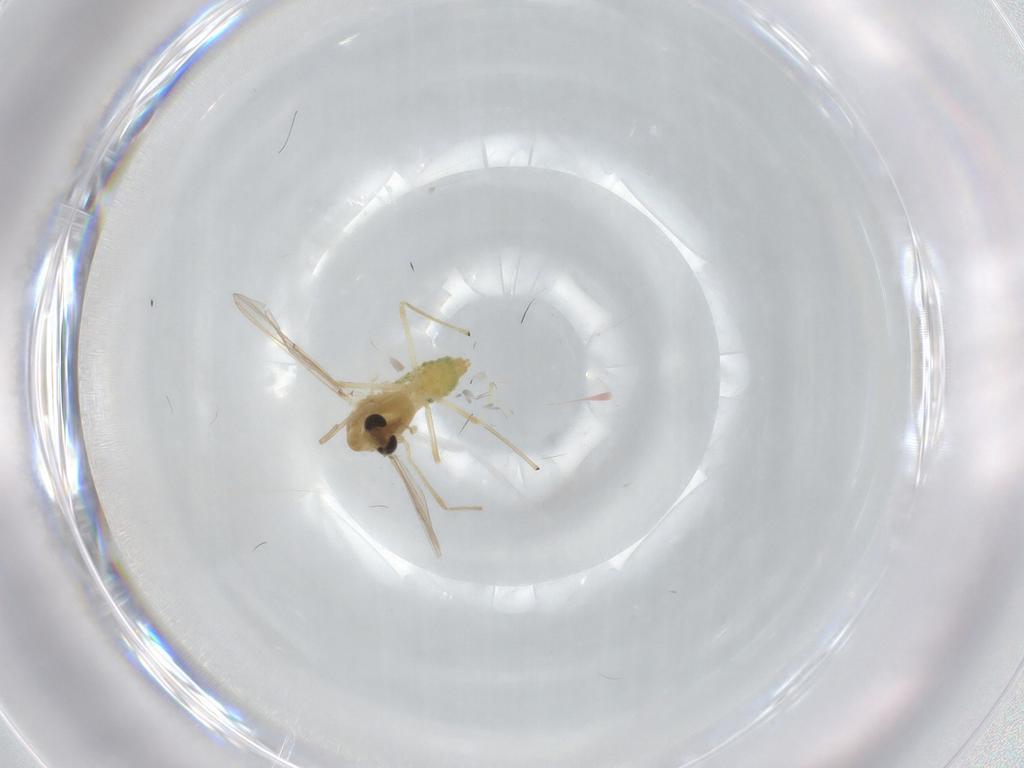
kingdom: Animalia
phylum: Arthropoda
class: Insecta
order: Diptera
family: Chironomidae
